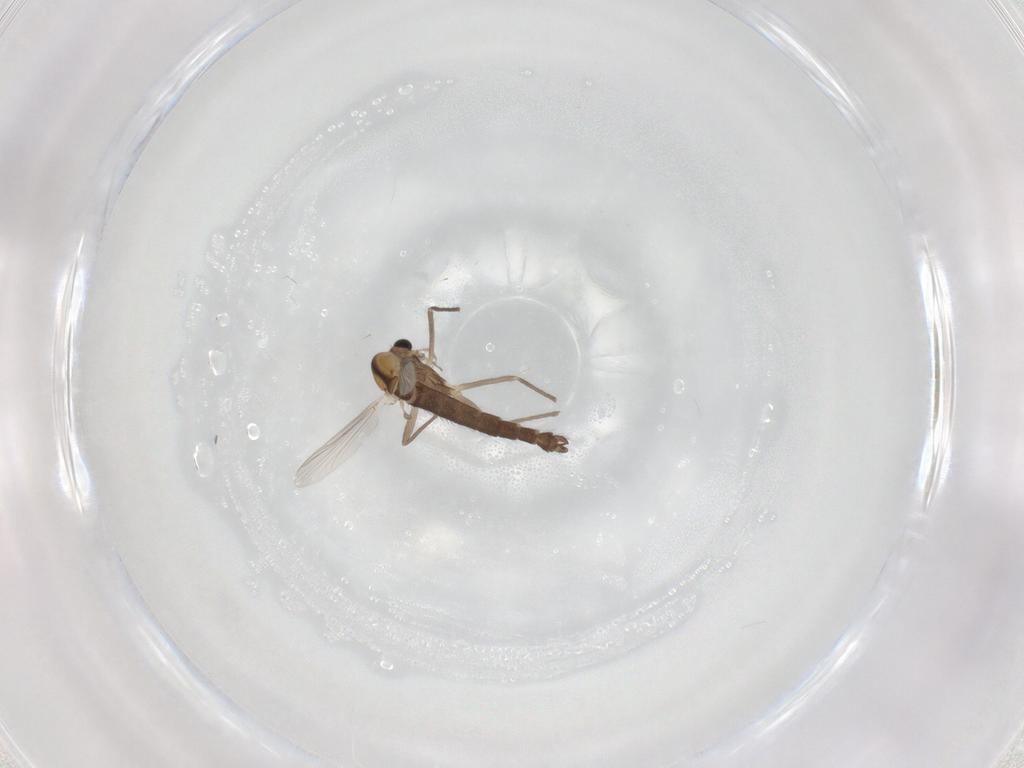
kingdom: Animalia
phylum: Arthropoda
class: Insecta
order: Diptera
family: Chironomidae
